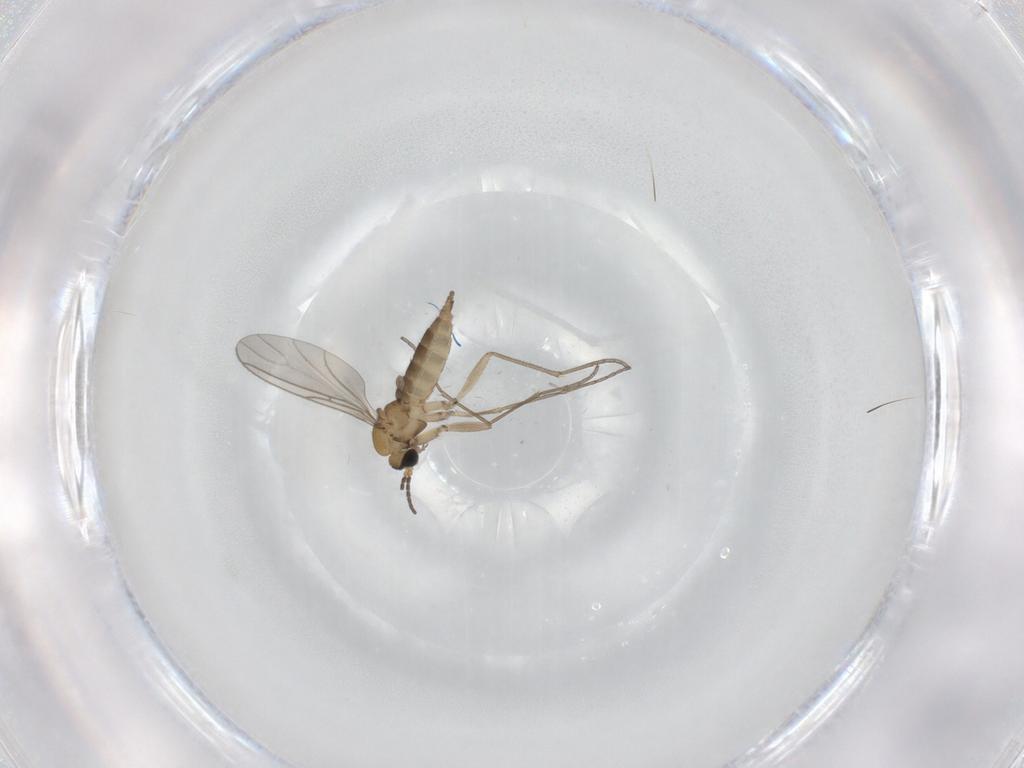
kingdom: Animalia
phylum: Arthropoda
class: Insecta
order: Diptera
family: Sciaridae
